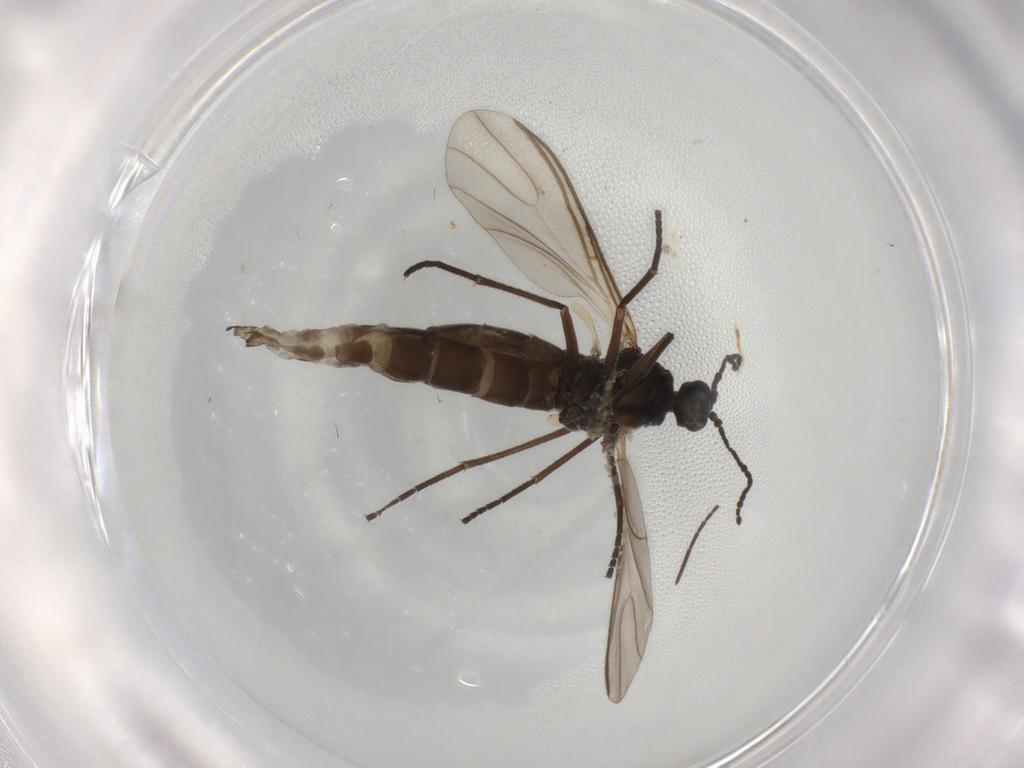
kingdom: Animalia
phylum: Arthropoda
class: Insecta
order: Diptera
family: Sciaridae
